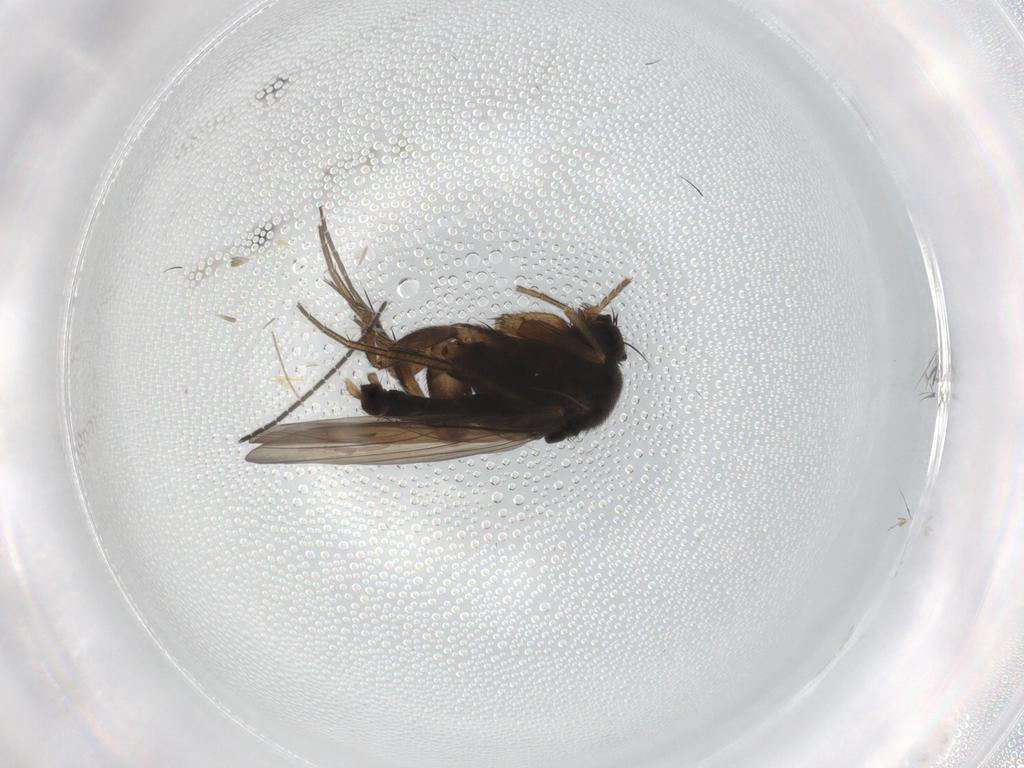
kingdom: Animalia
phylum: Arthropoda
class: Insecta
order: Diptera
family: Phoridae
